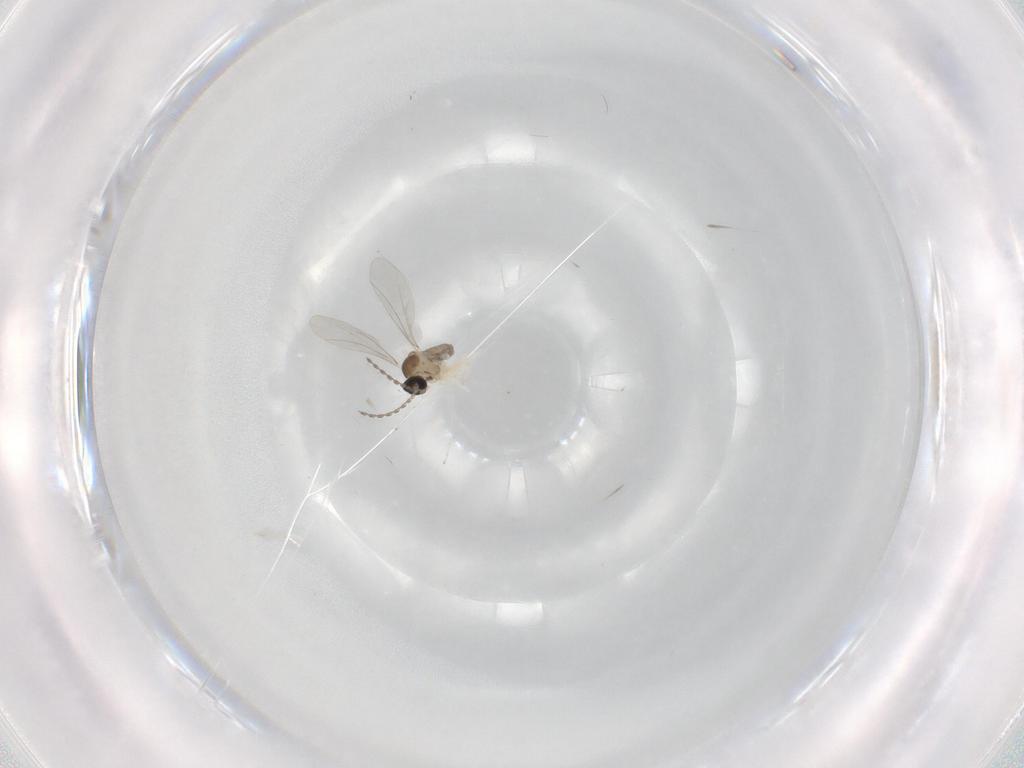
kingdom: Animalia
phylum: Arthropoda
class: Insecta
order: Diptera
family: Cecidomyiidae
